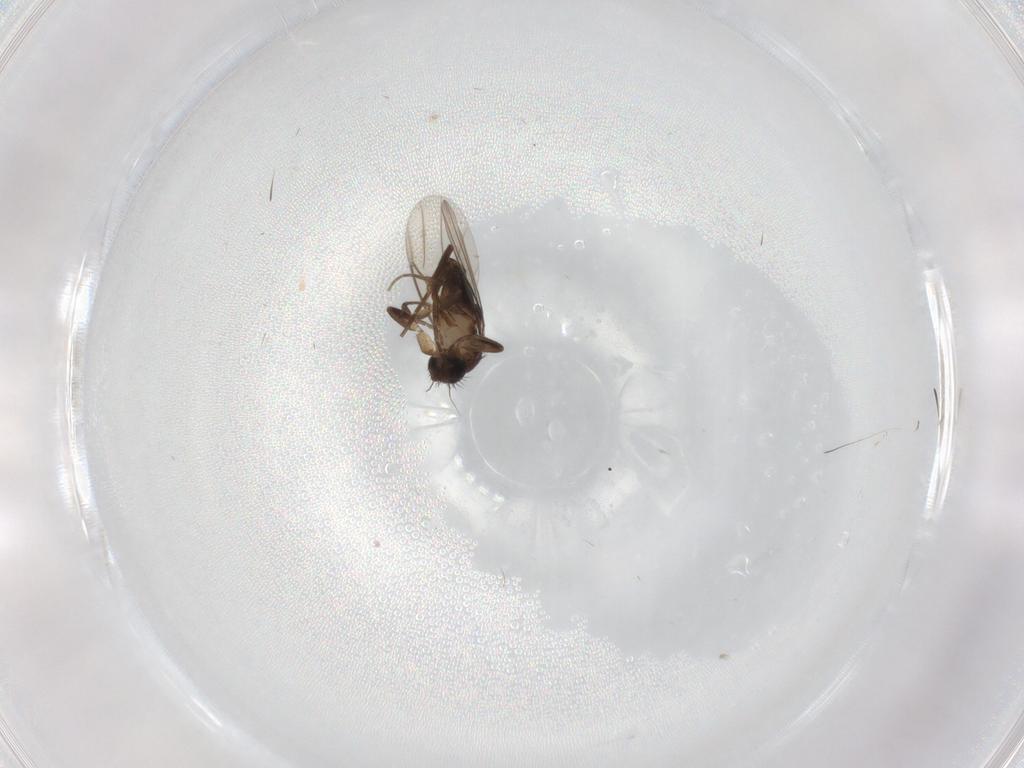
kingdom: Animalia
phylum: Arthropoda
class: Insecta
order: Diptera
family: Phoridae
